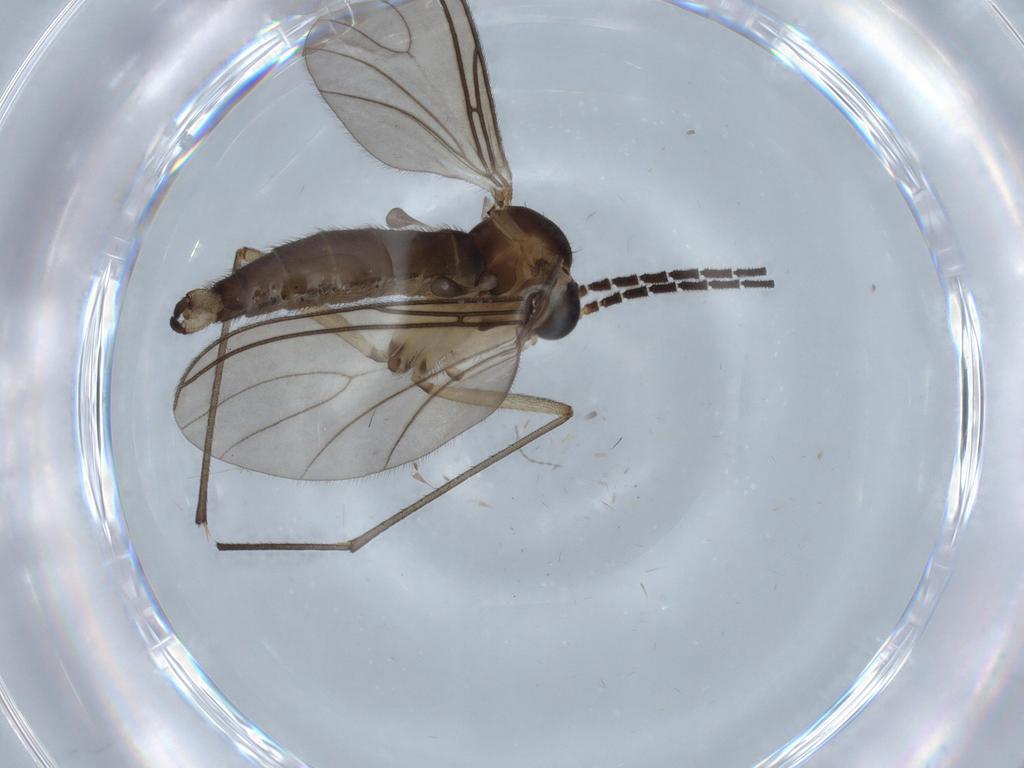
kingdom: Animalia
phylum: Arthropoda
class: Insecta
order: Diptera
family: Sciaridae
